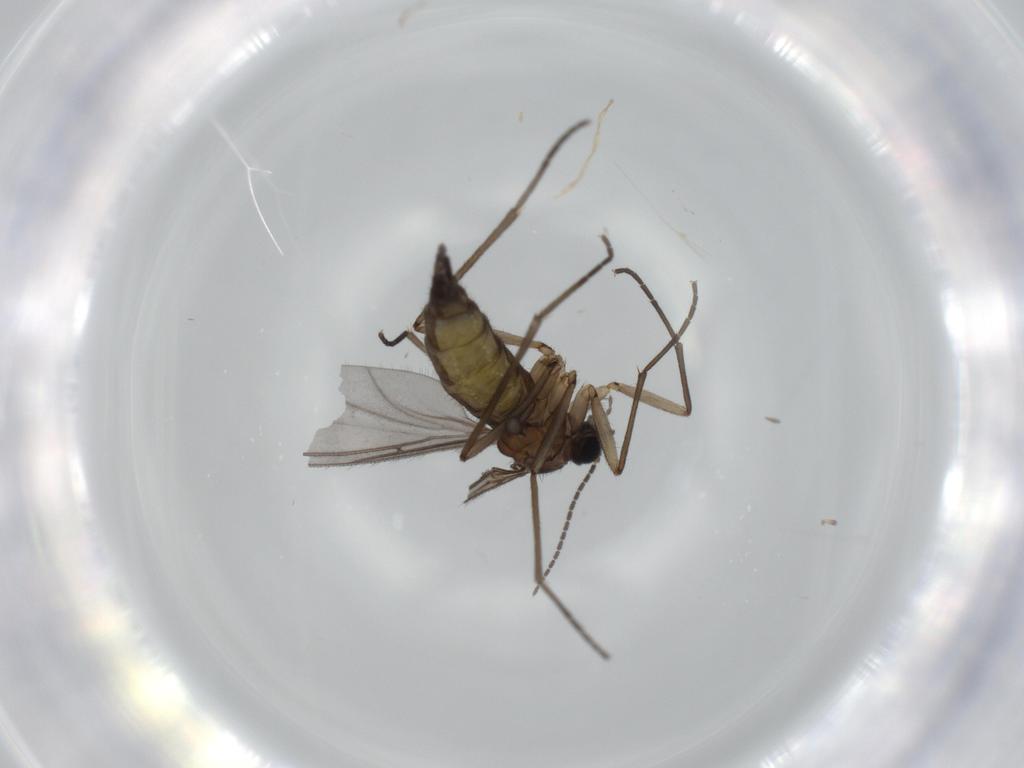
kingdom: Animalia
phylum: Arthropoda
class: Insecta
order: Diptera
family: Sciaridae
